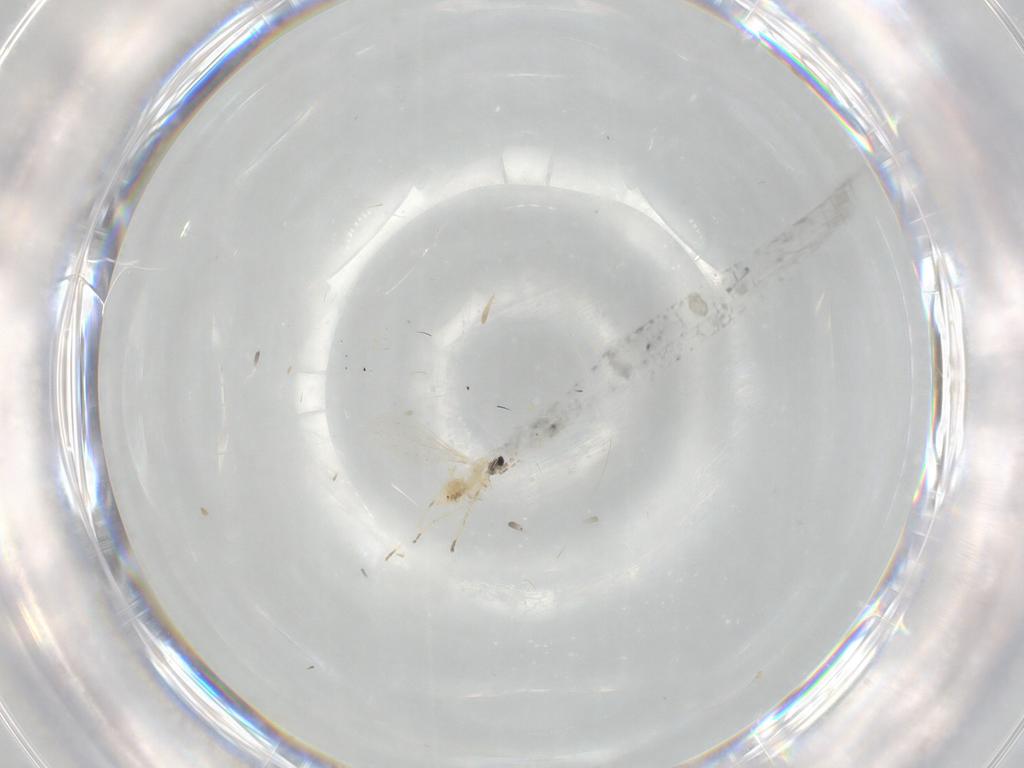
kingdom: Animalia
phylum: Arthropoda
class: Insecta
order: Diptera
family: Cecidomyiidae
